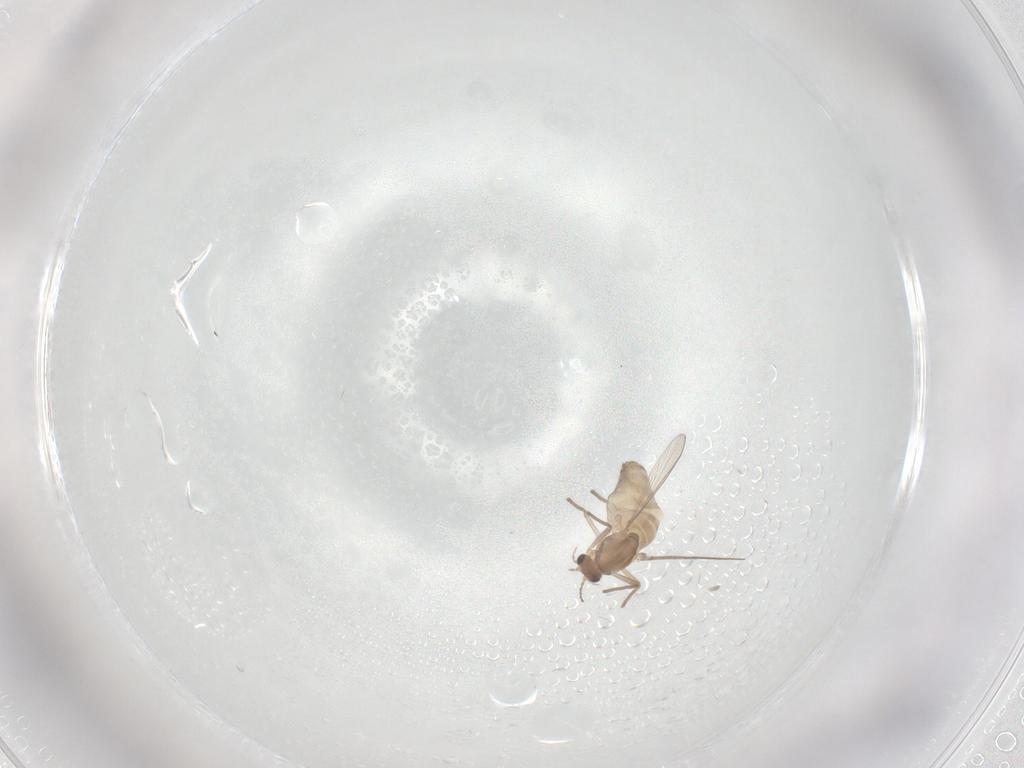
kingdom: Animalia
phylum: Arthropoda
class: Insecta
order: Diptera
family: Chironomidae
